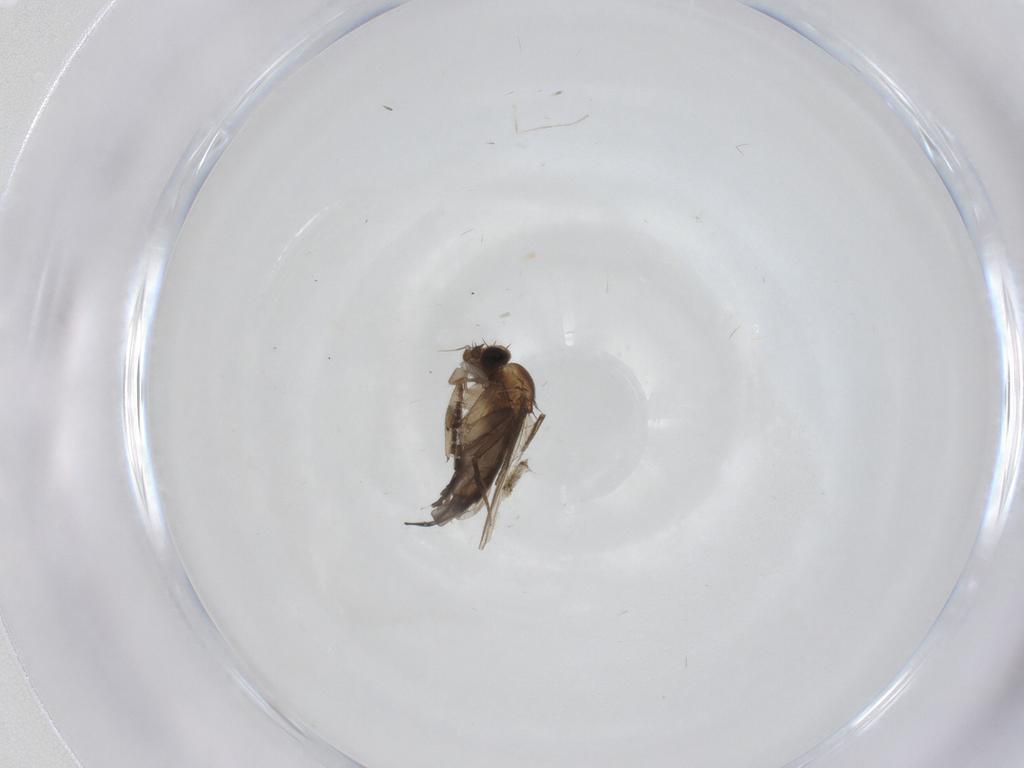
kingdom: Animalia
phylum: Arthropoda
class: Insecta
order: Diptera
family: Phoridae
